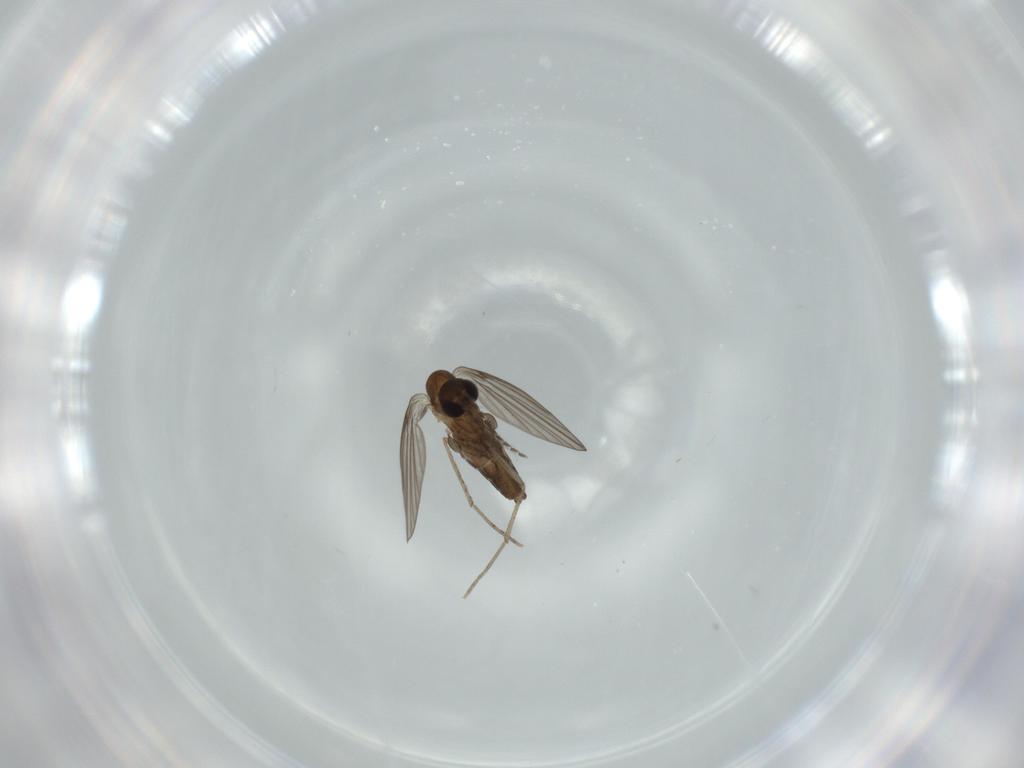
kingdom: Animalia
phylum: Arthropoda
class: Insecta
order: Diptera
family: Psychodidae
